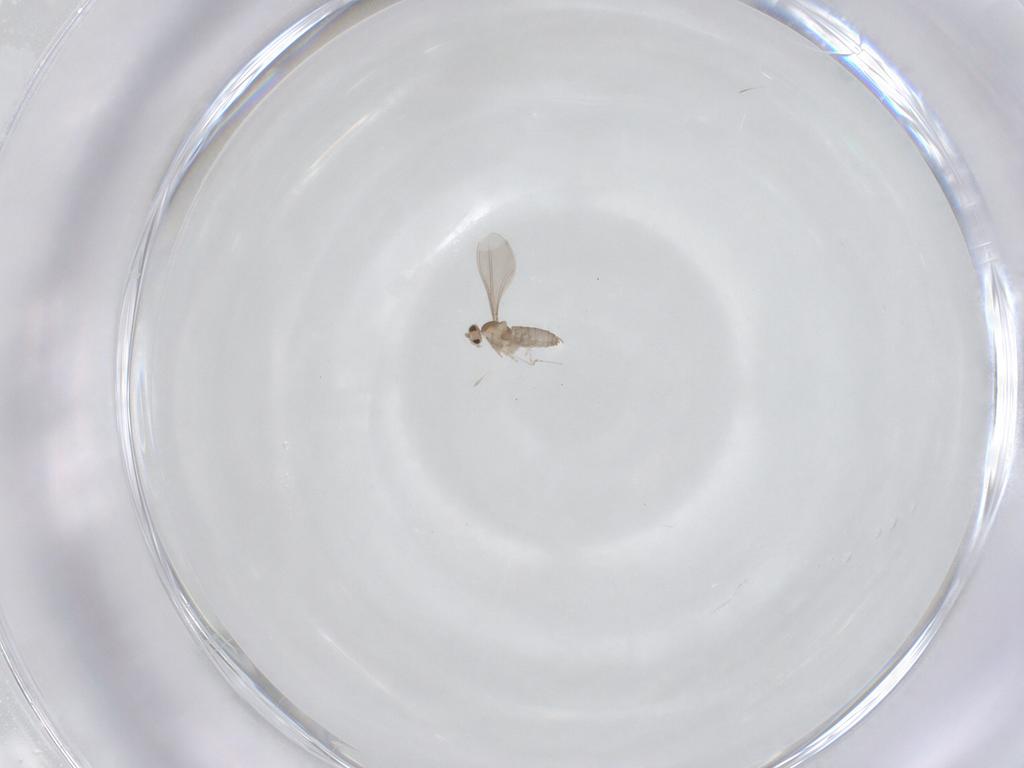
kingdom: Animalia
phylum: Arthropoda
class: Insecta
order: Diptera
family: Cecidomyiidae
